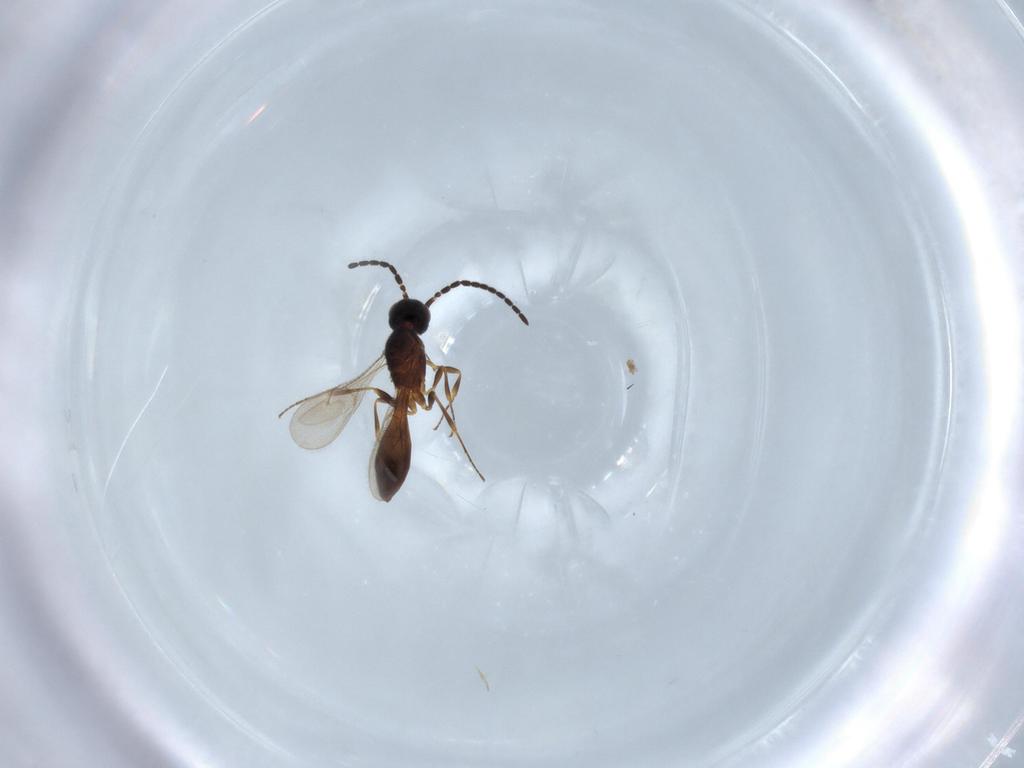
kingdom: Animalia
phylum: Arthropoda
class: Insecta
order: Hymenoptera
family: Scelionidae
